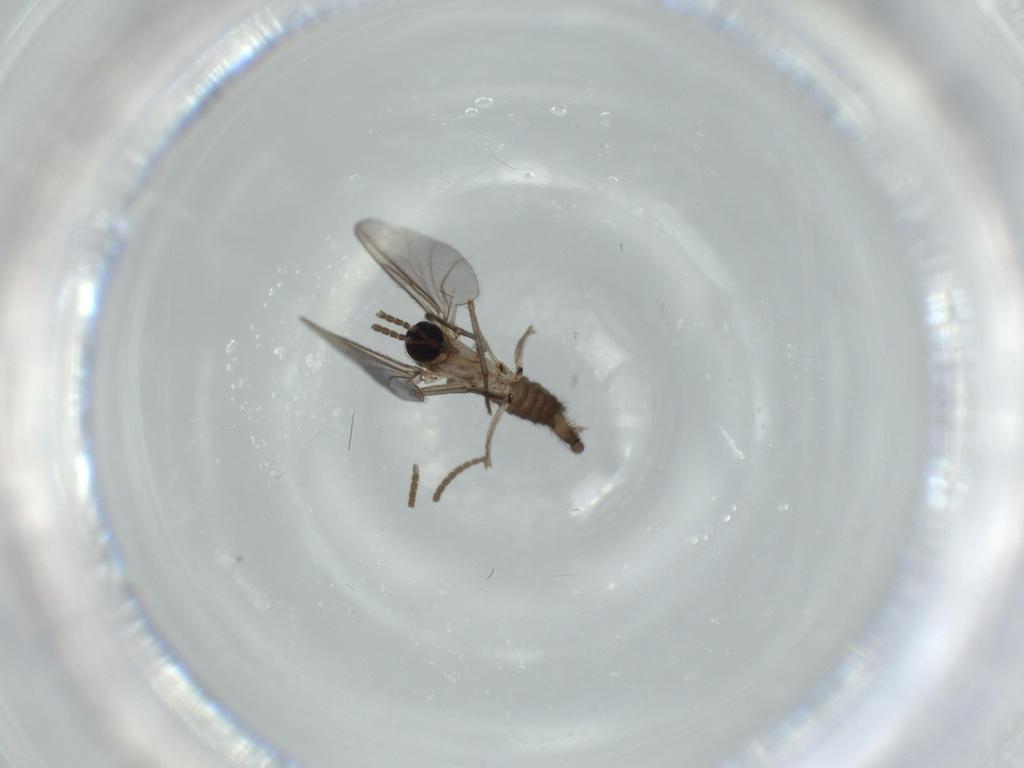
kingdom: Animalia
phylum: Arthropoda
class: Insecta
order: Diptera
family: Sciaridae
